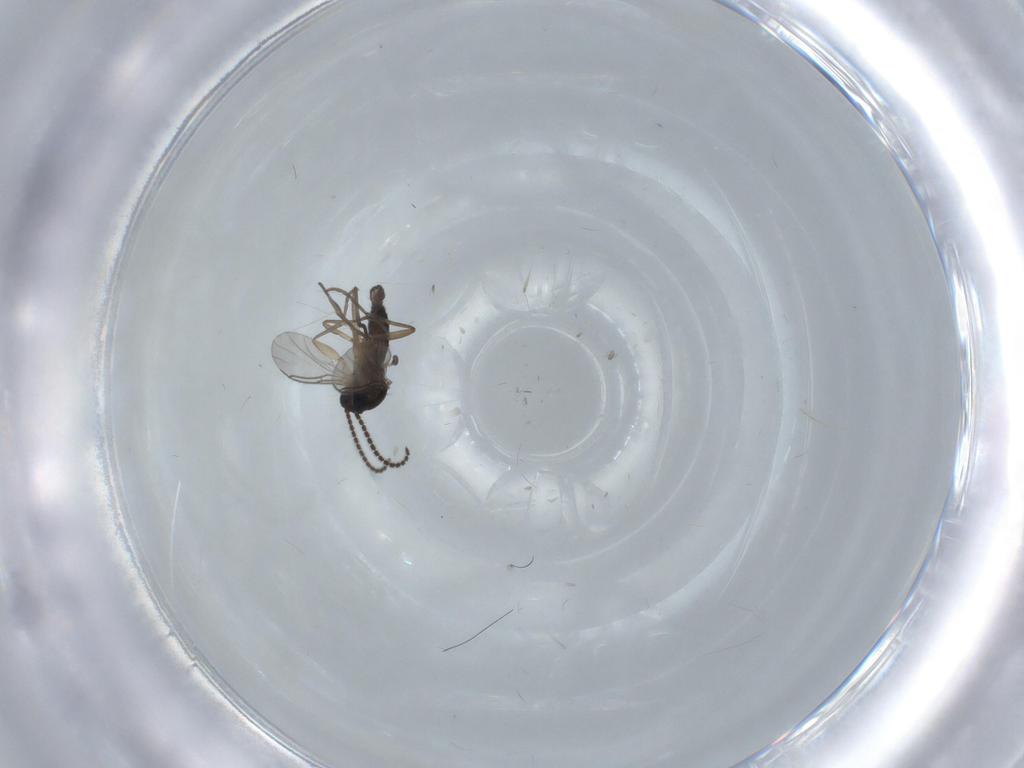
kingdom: Animalia
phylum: Arthropoda
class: Insecta
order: Diptera
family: Sciaridae
